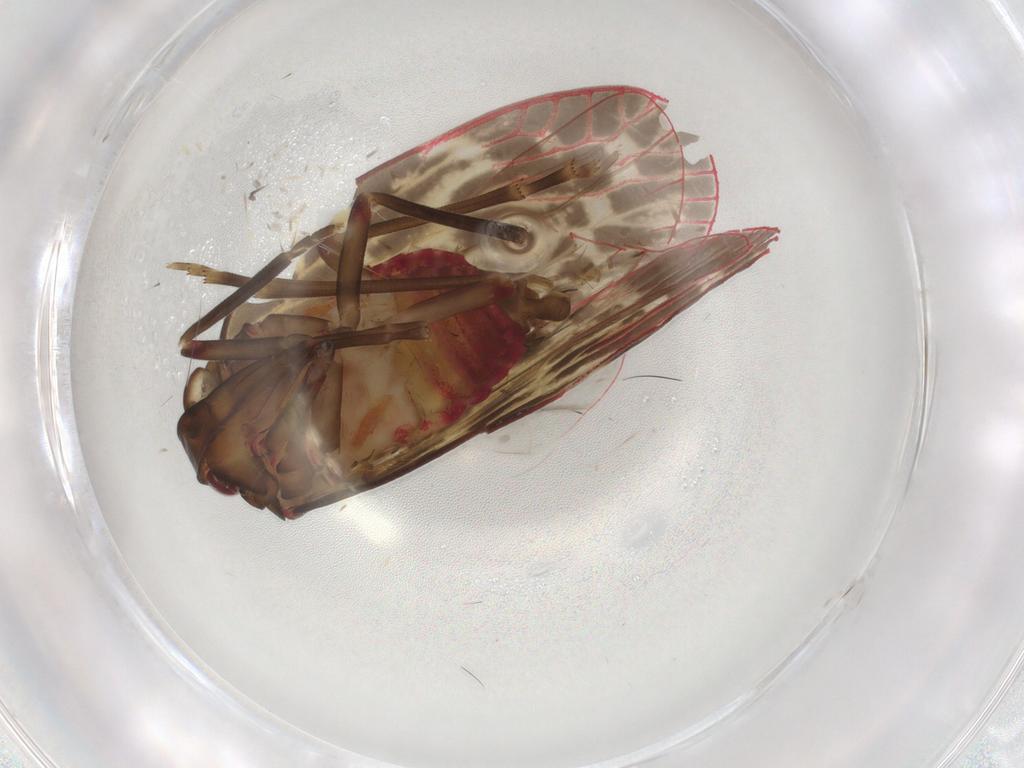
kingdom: Animalia
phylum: Arthropoda
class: Insecta
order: Hemiptera
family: Achilidae
